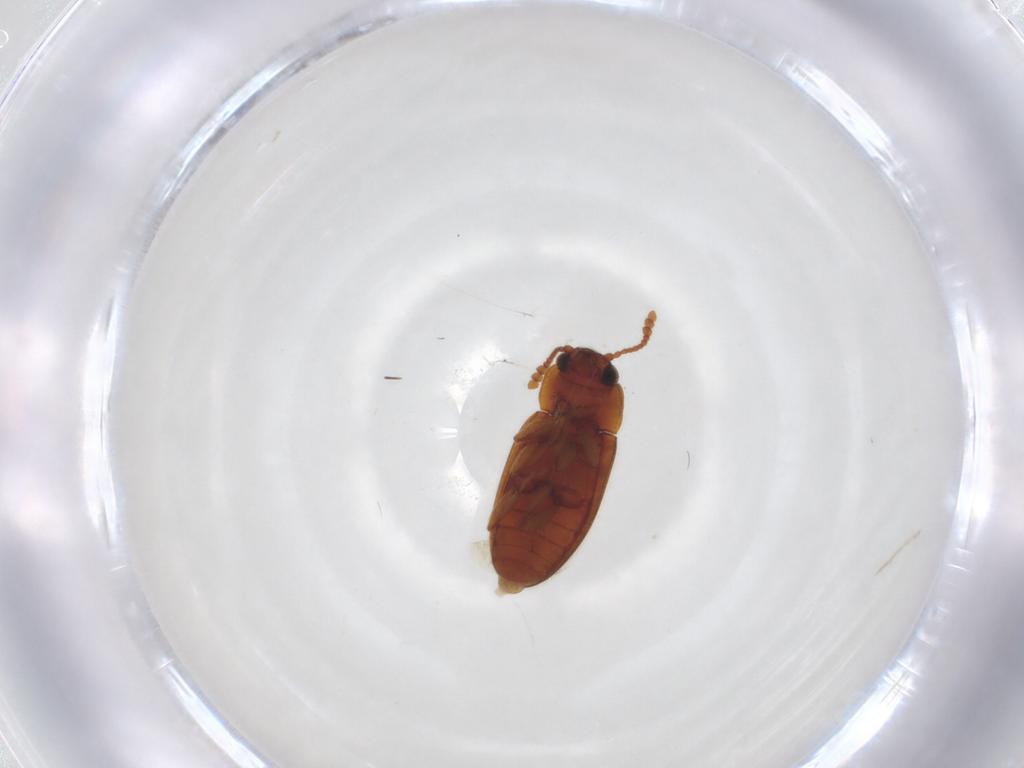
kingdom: Animalia
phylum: Arthropoda
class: Insecta
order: Coleoptera
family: Erotylidae
